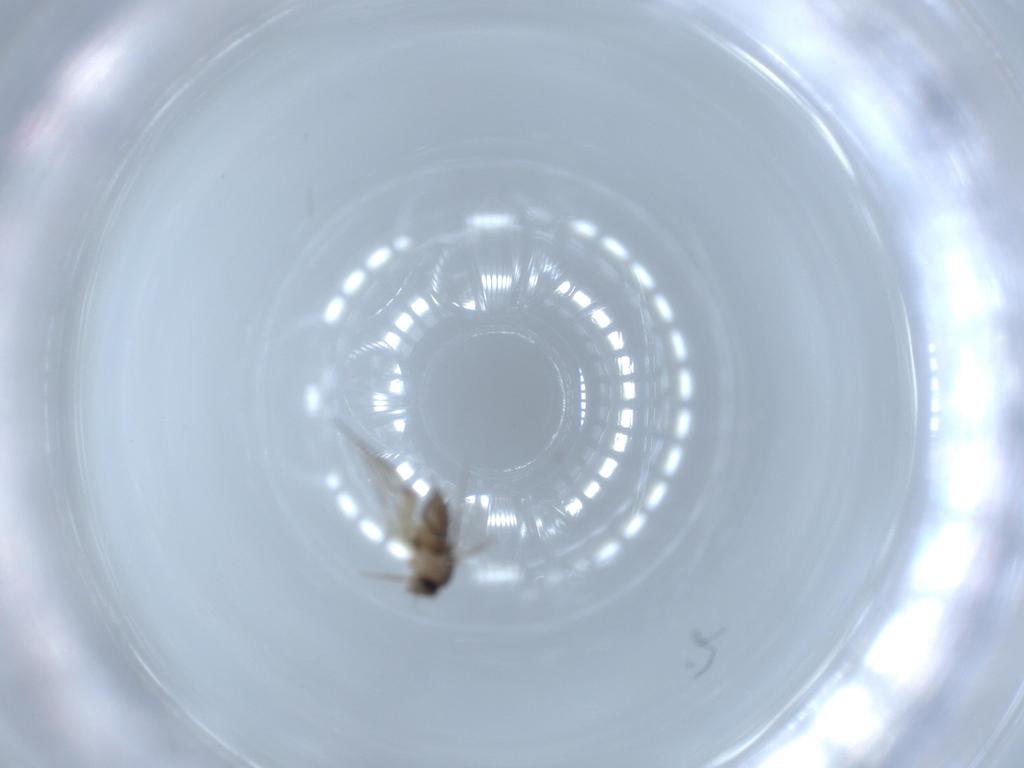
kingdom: Animalia
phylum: Arthropoda
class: Insecta
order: Diptera
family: Phoridae
